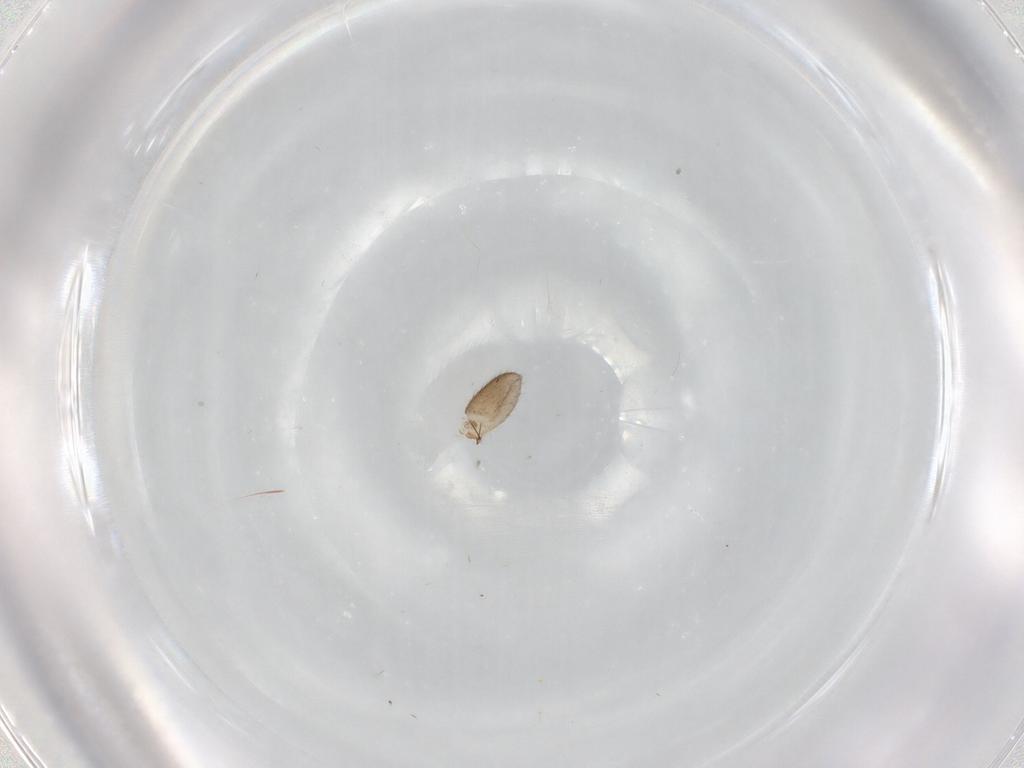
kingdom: Animalia
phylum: Arthropoda
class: Insecta
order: Diptera
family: Limoniidae
